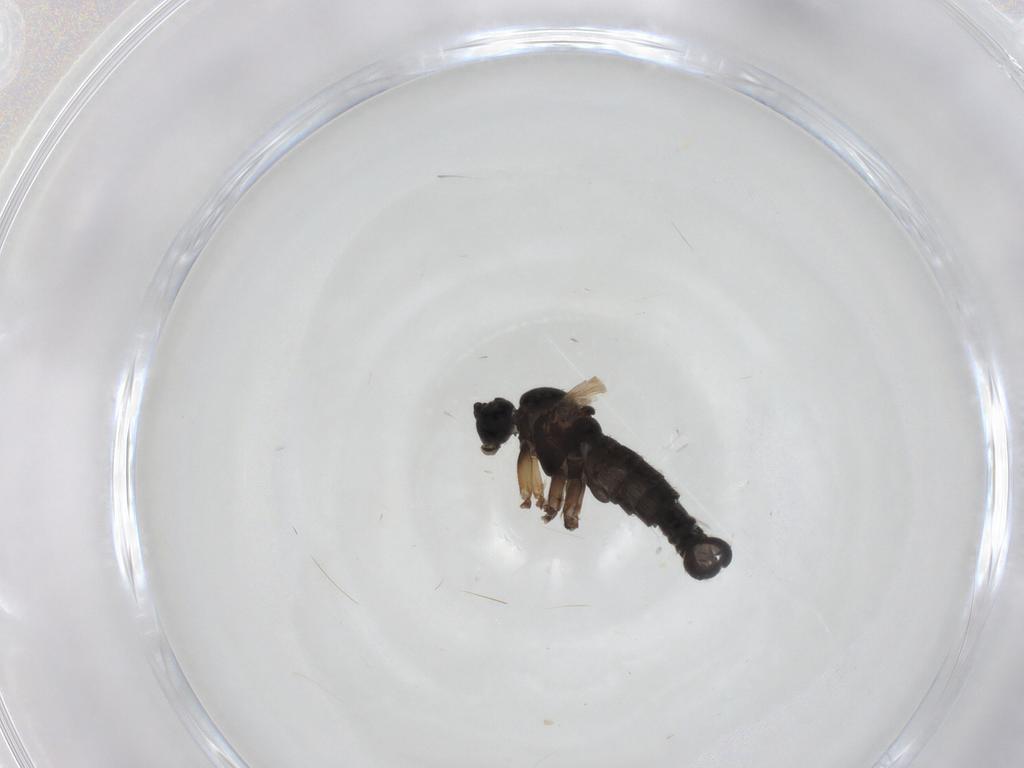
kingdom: Animalia
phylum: Arthropoda
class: Insecta
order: Diptera
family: Sciaridae
